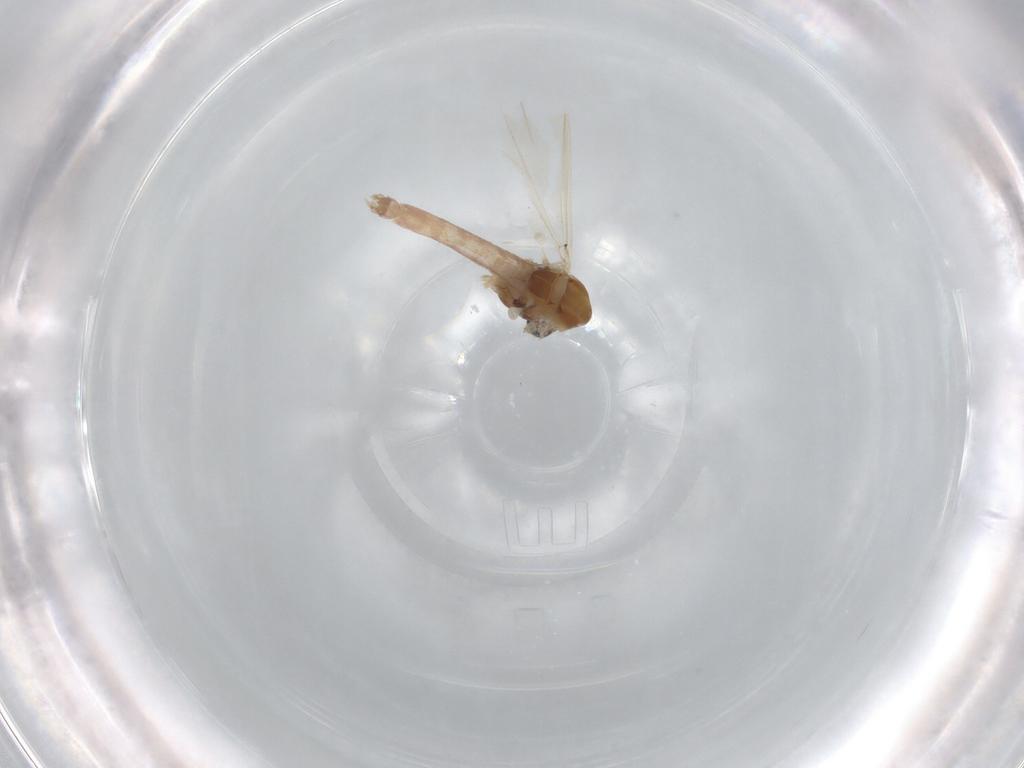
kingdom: Animalia
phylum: Arthropoda
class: Insecta
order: Diptera
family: Chironomidae
